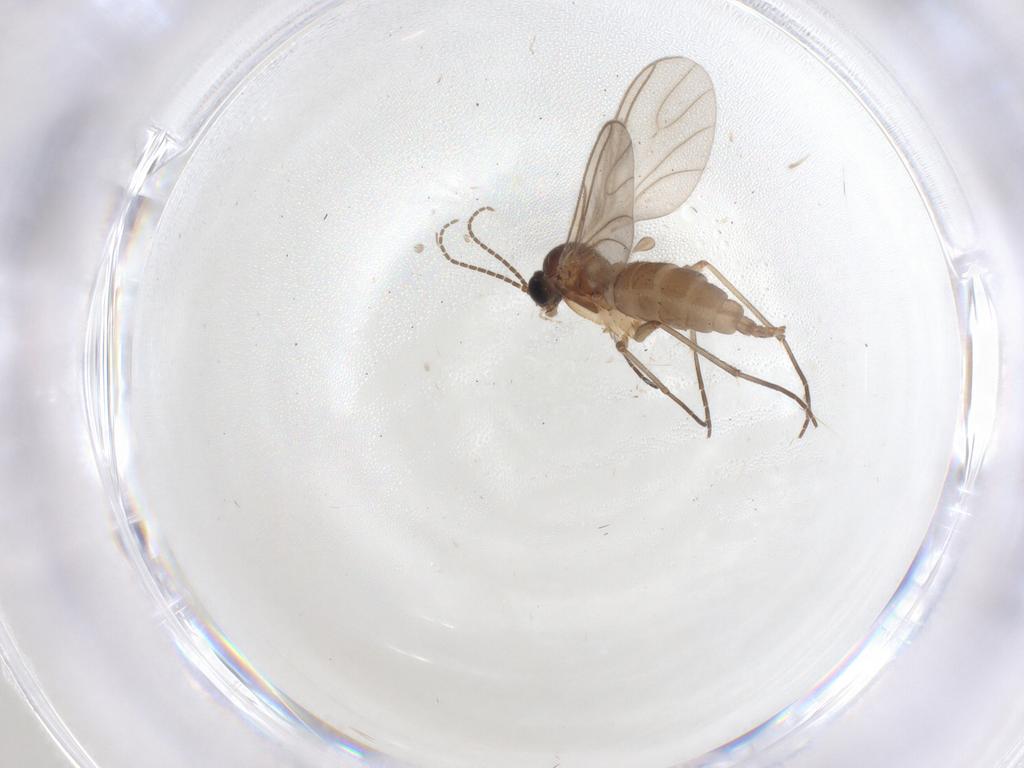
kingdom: Animalia
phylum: Arthropoda
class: Insecta
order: Diptera
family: Sciaridae
